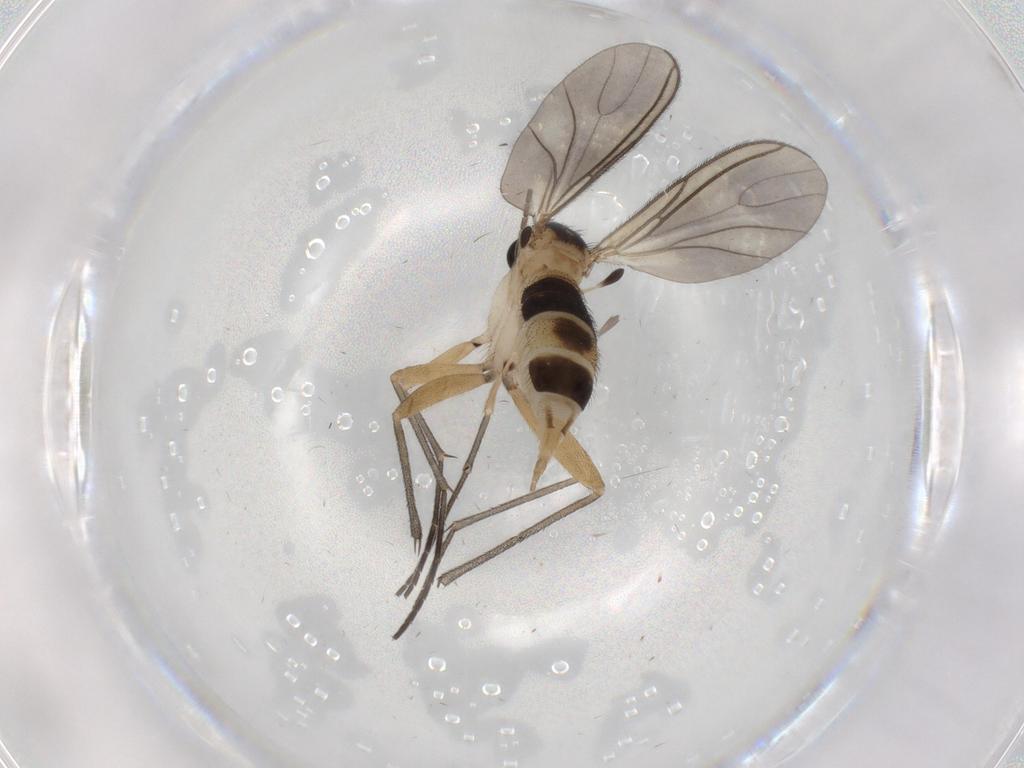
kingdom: Animalia
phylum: Arthropoda
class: Insecta
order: Diptera
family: Sciaridae
